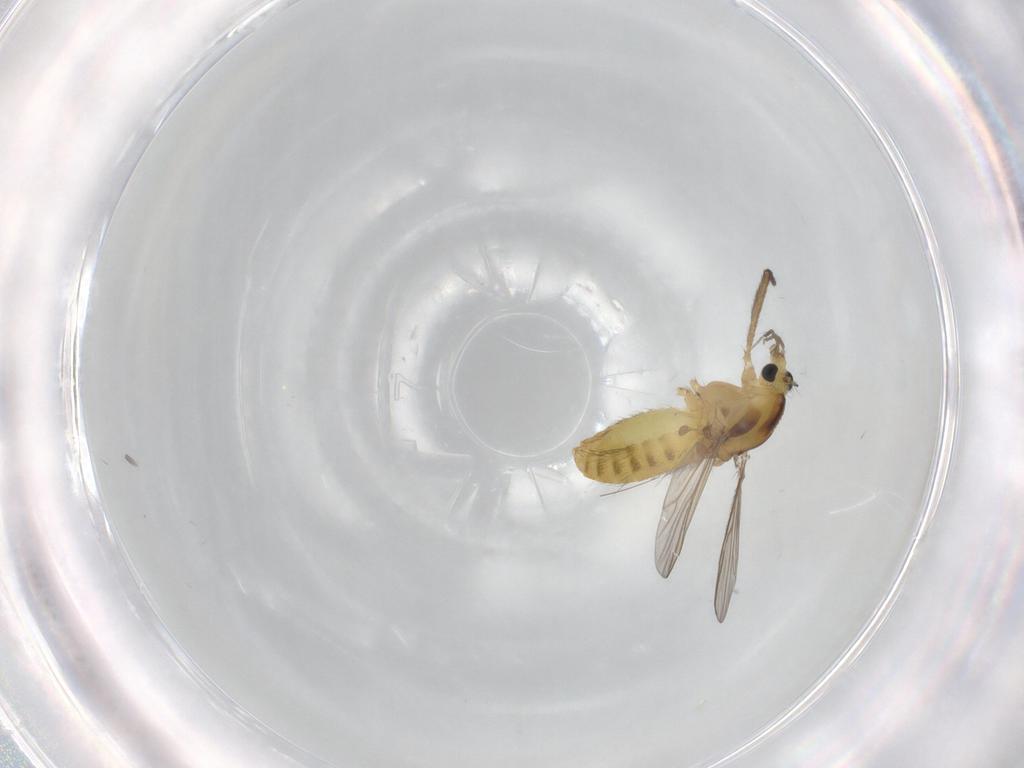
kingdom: Animalia
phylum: Arthropoda
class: Insecta
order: Diptera
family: Chironomidae
